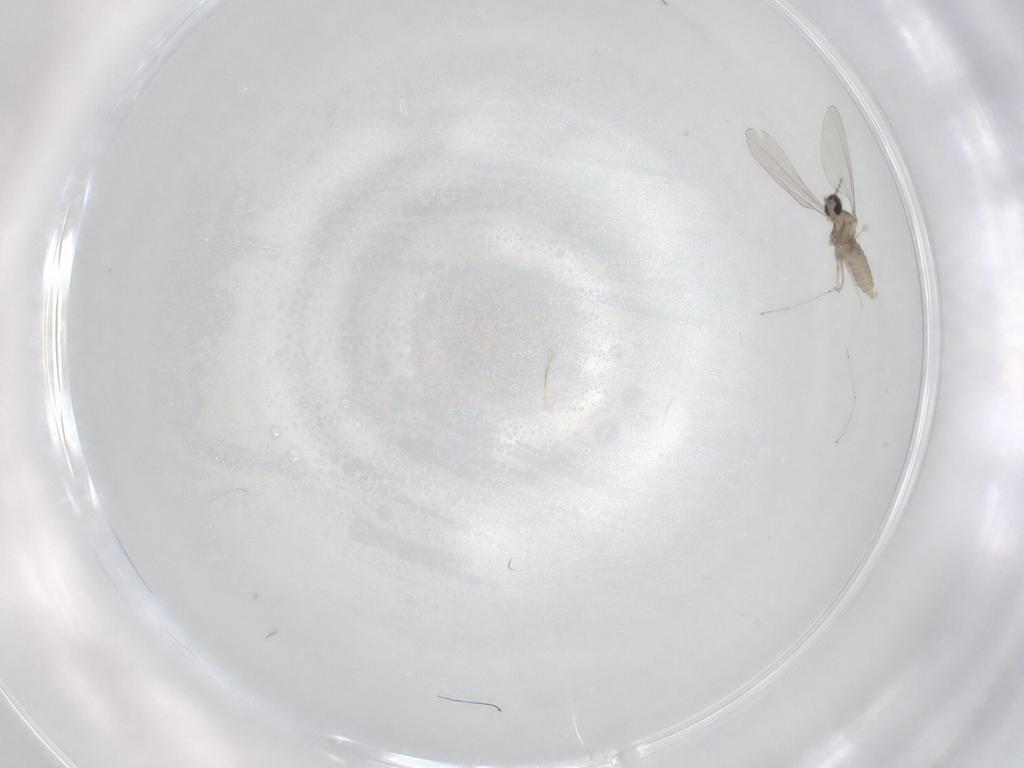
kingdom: Animalia
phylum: Arthropoda
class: Insecta
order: Diptera
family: Cecidomyiidae
